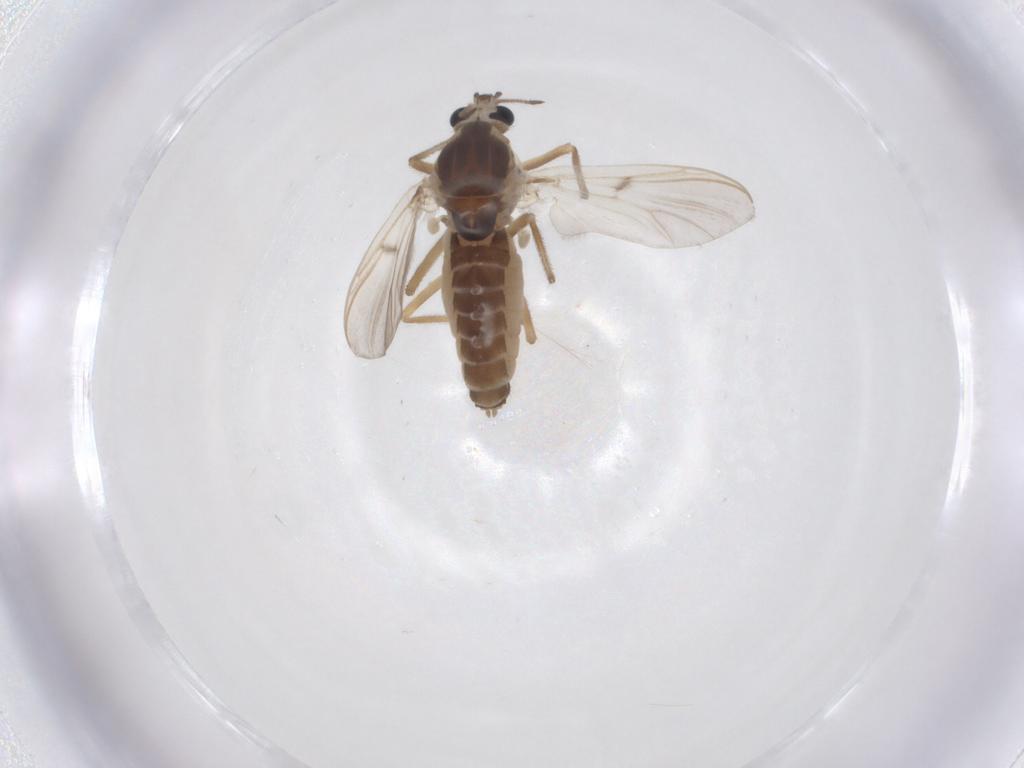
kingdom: Animalia
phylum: Arthropoda
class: Insecta
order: Diptera
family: Chironomidae
